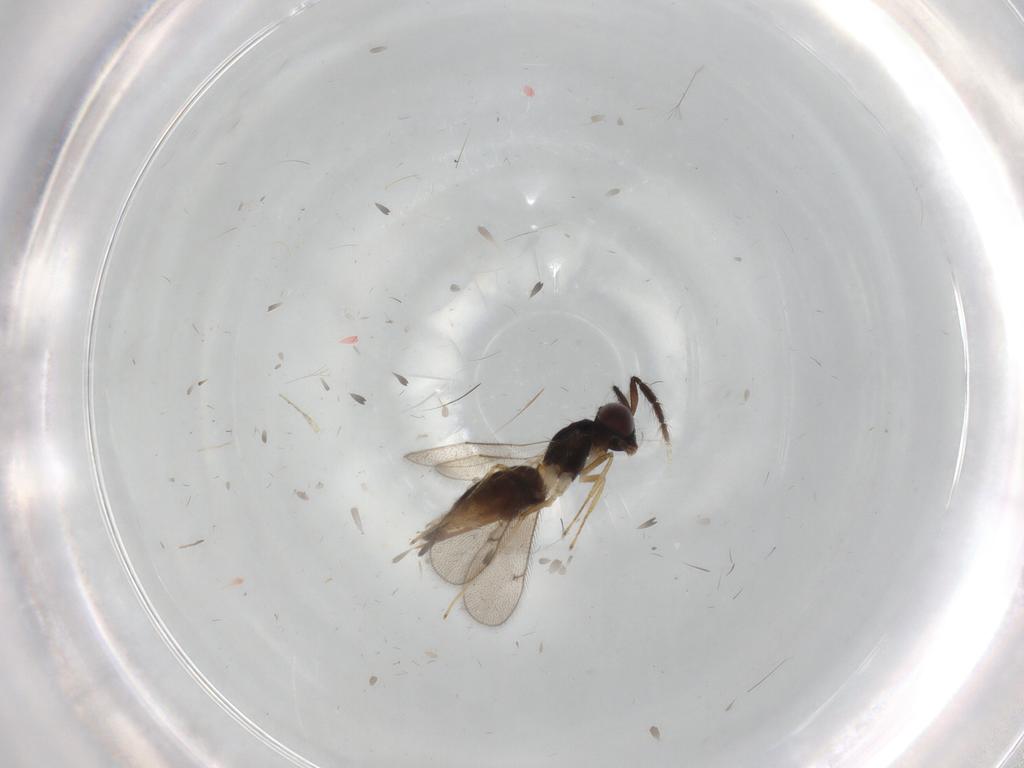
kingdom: Animalia
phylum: Arthropoda
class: Insecta
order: Hymenoptera
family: Eulophidae
